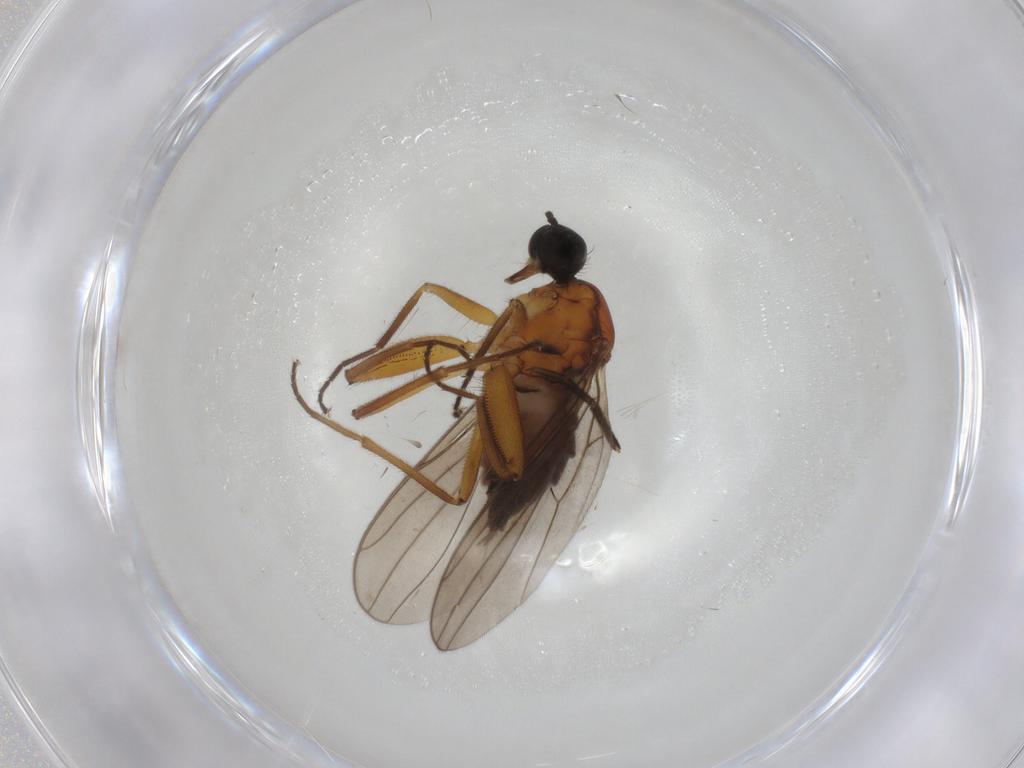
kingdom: Animalia
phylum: Arthropoda
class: Insecta
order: Diptera
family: Hybotidae
